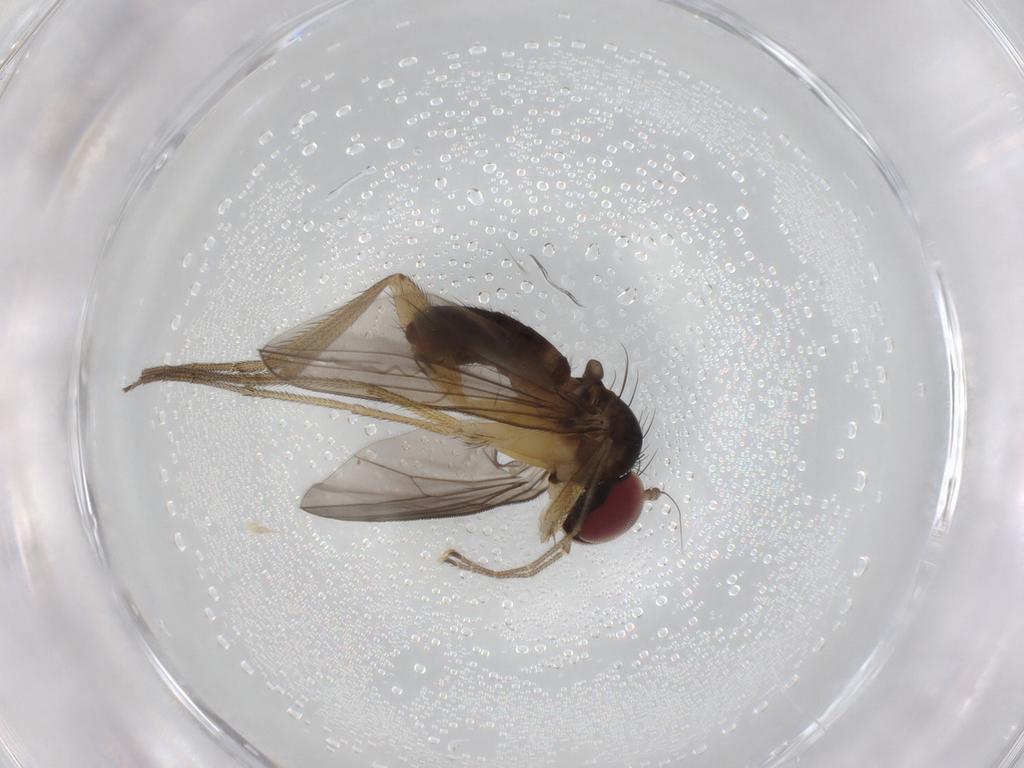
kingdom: Animalia
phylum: Arthropoda
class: Insecta
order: Diptera
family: Dolichopodidae
